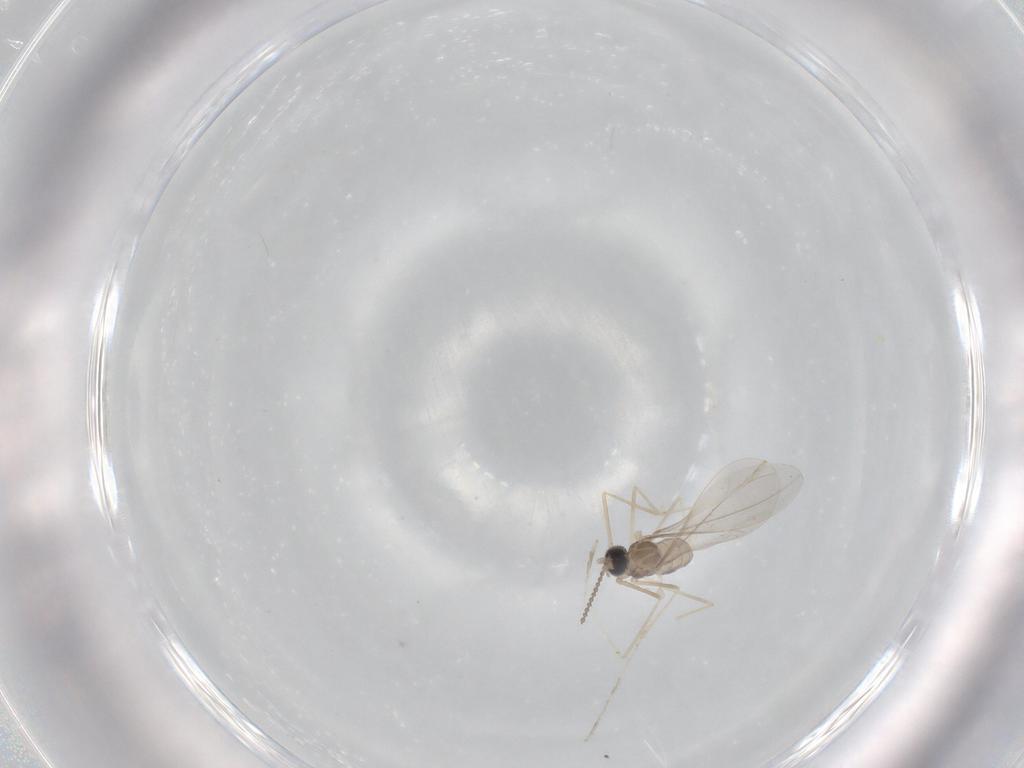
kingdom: Animalia
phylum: Arthropoda
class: Insecta
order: Diptera
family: Cecidomyiidae
